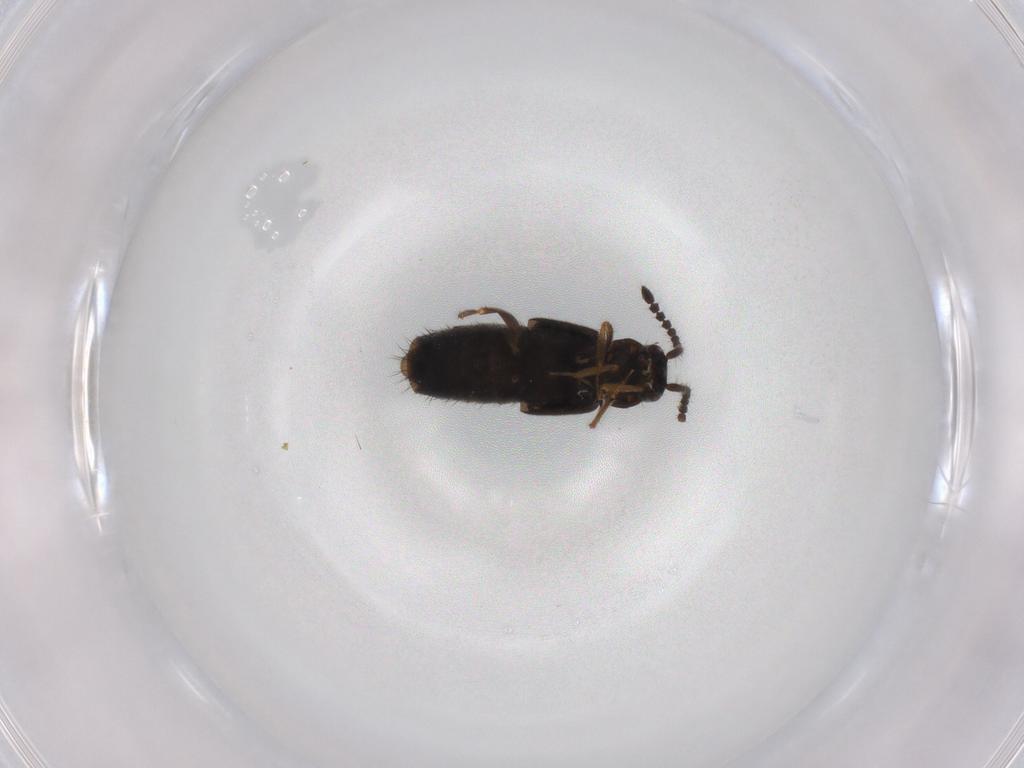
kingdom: Animalia
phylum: Arthropoda
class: Insecta
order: Coleoptera
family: Staphylinidae
